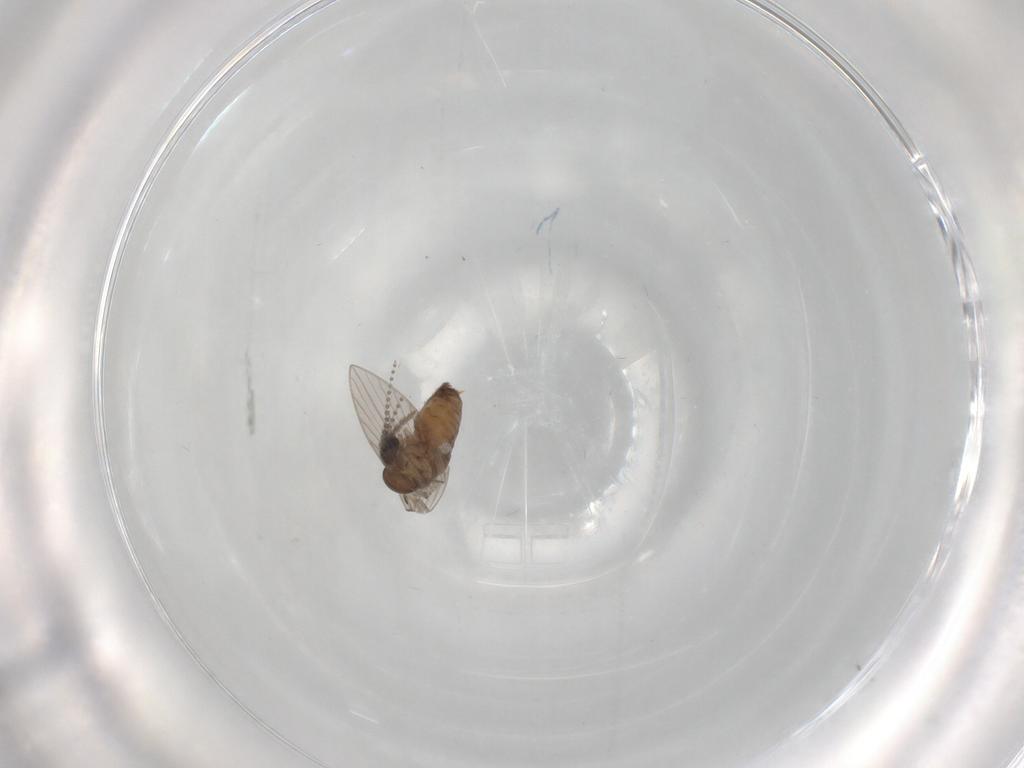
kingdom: Animalia
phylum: Arthropoda
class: Insecta
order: Diptera
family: Psychodidae
